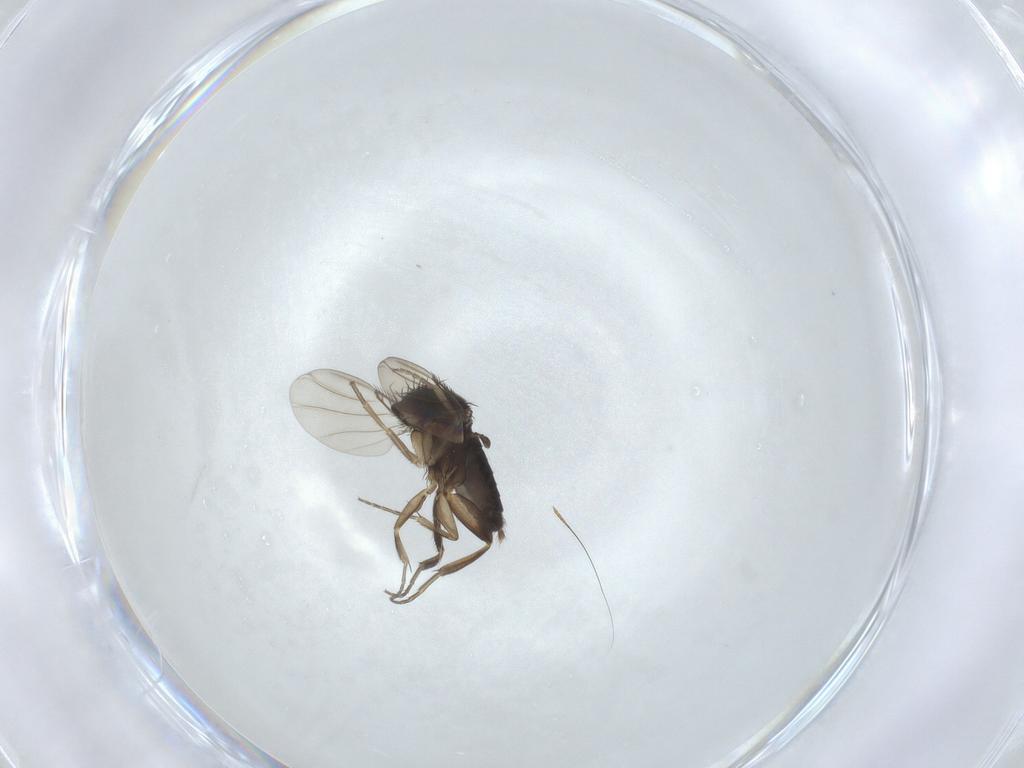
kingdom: Animalia
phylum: Arthropoda
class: Insecta
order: Diptera
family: Phoridae
